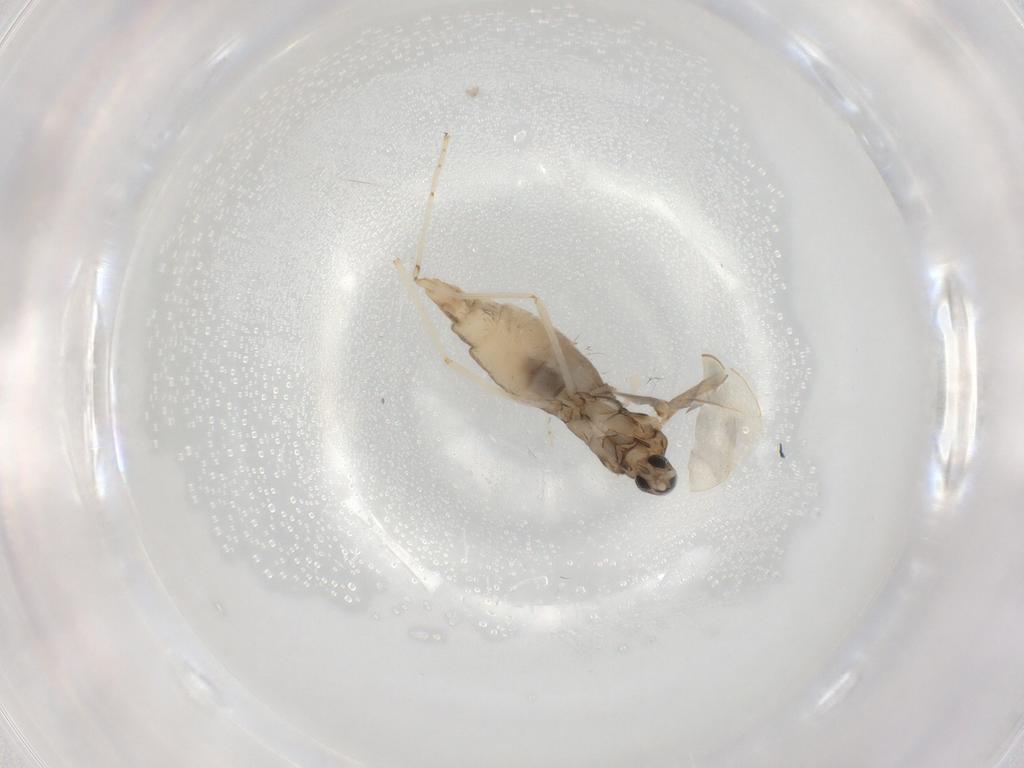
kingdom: Animalia
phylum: Arthropoda
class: Insecta
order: Diptera
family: Cecidomyiidae
